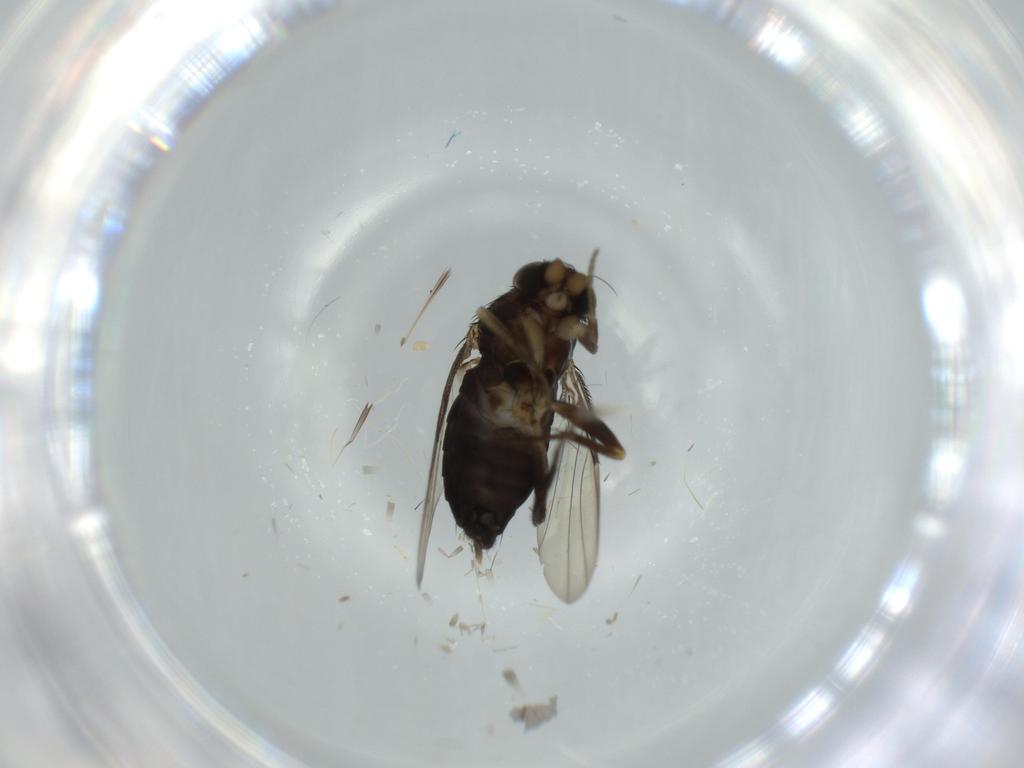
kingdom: Animalia
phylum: Arthropoda
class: Insecta
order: Diptera
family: Phoridae
